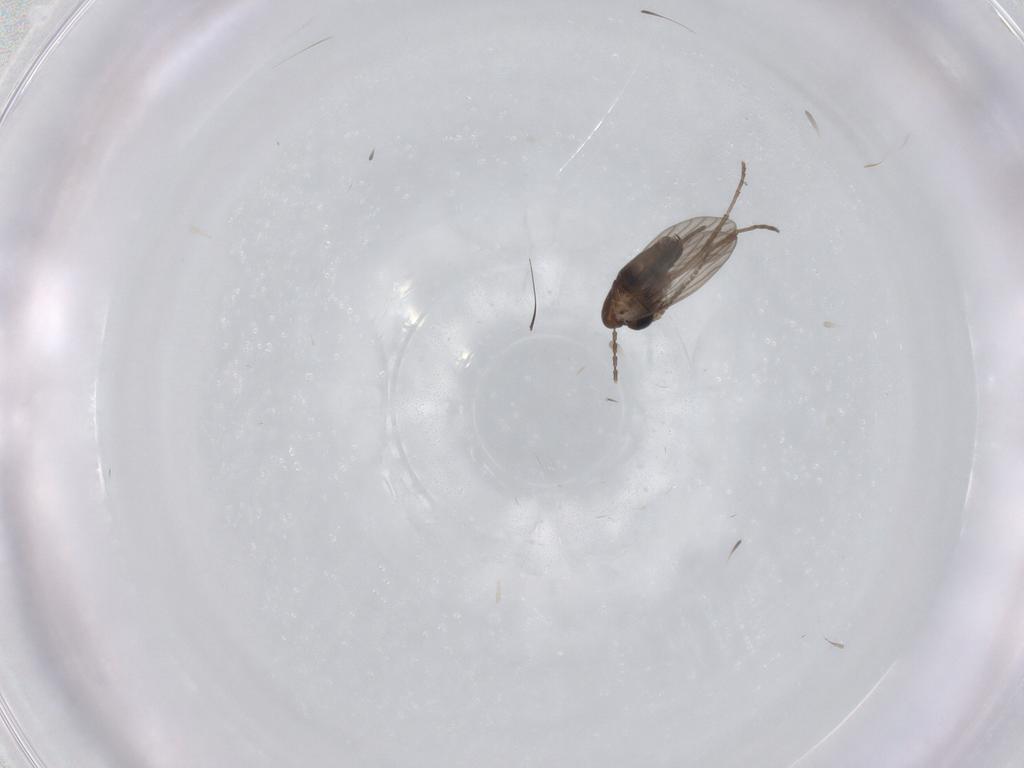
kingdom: Animalia
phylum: Arthropoda
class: Insecta
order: Diptera
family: Cecidomyiidae
